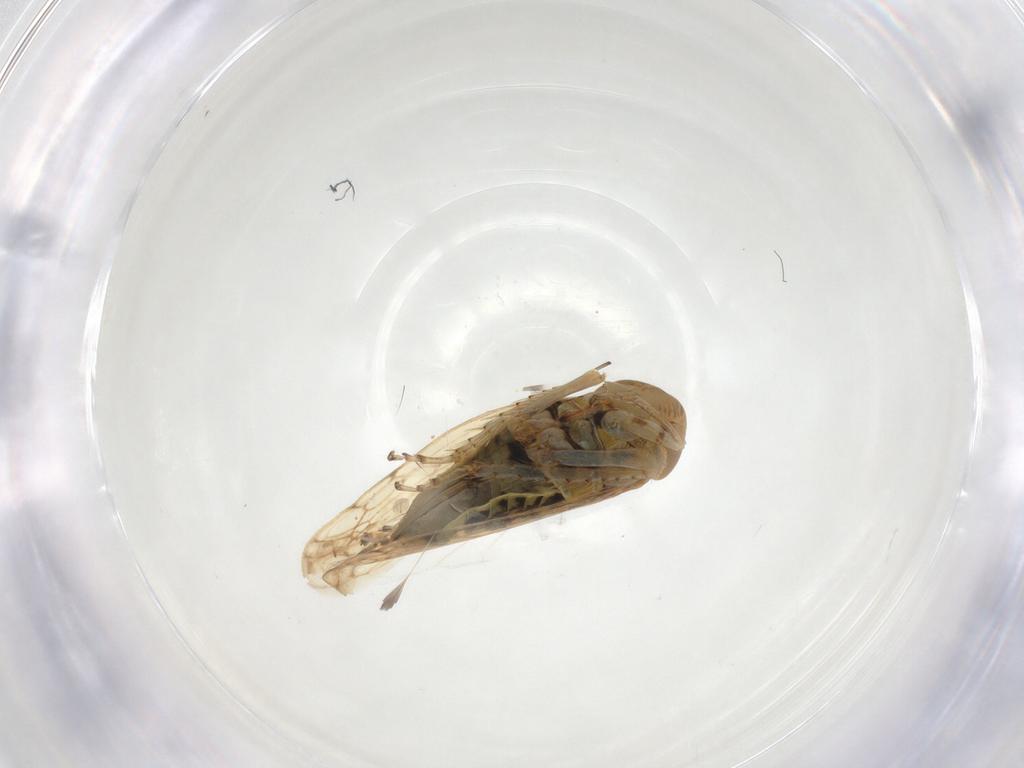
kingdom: Animalia
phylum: Arthropoda
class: Insecta
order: Hemiptera
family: Cicadellidae
